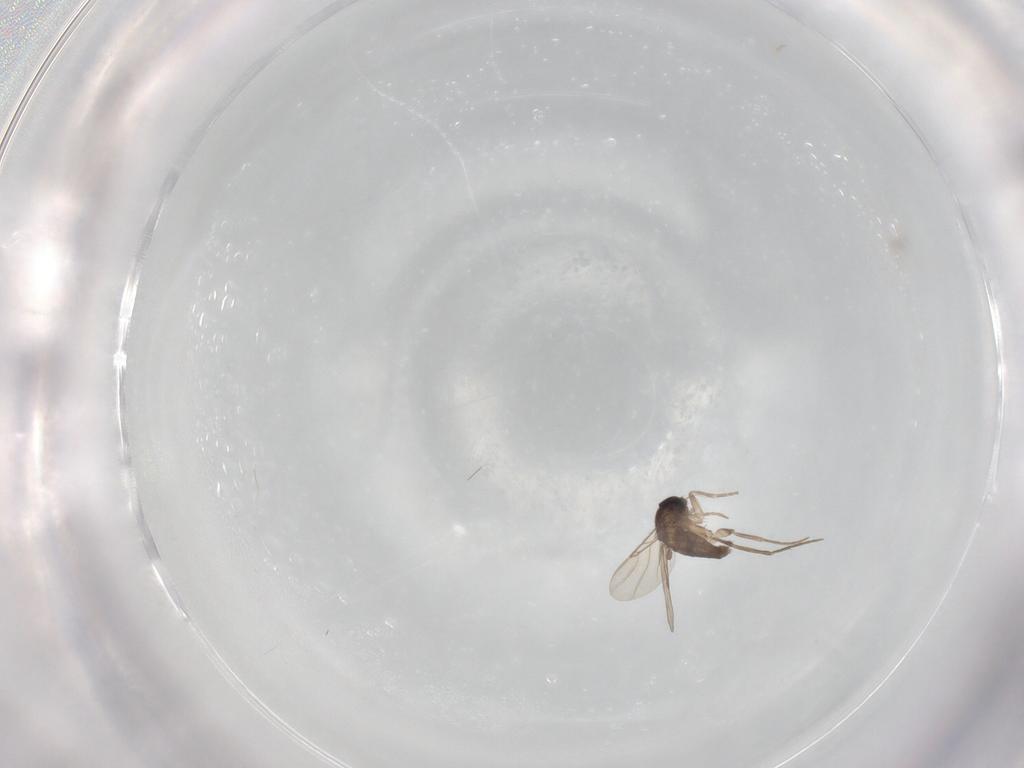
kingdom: Animalia
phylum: Arthropoda
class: Insecta
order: Diptera
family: Phoridae
